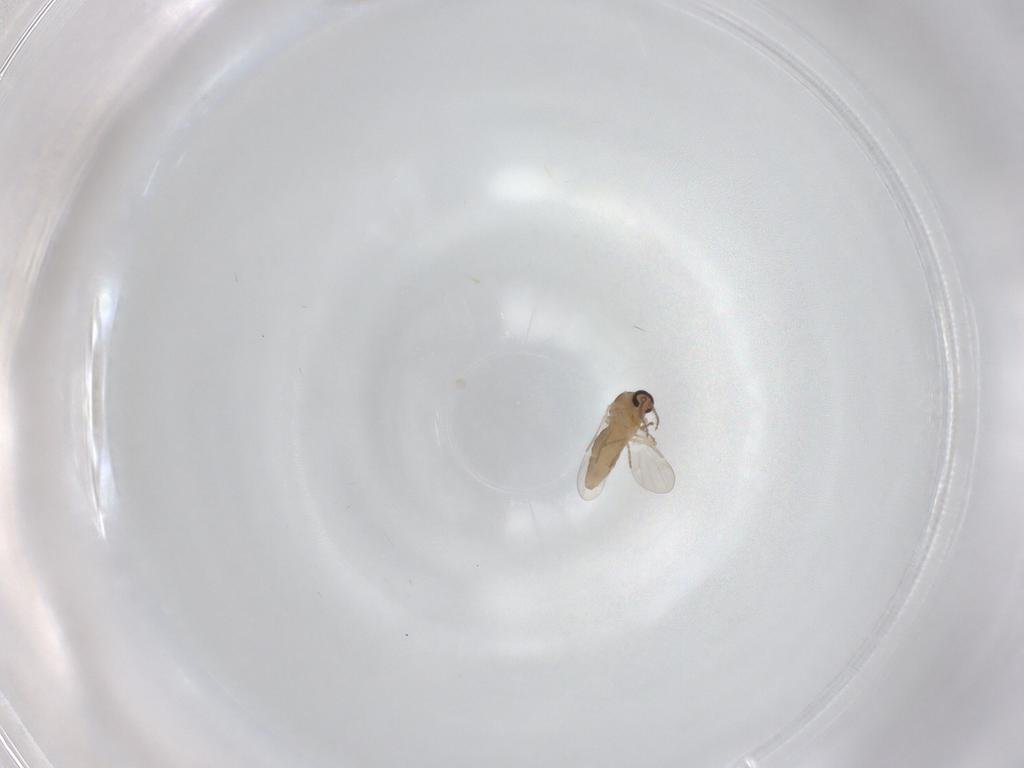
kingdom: Animalia
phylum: Arthropoda
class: Insecta
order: Diptera
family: Ceratopogonidae
